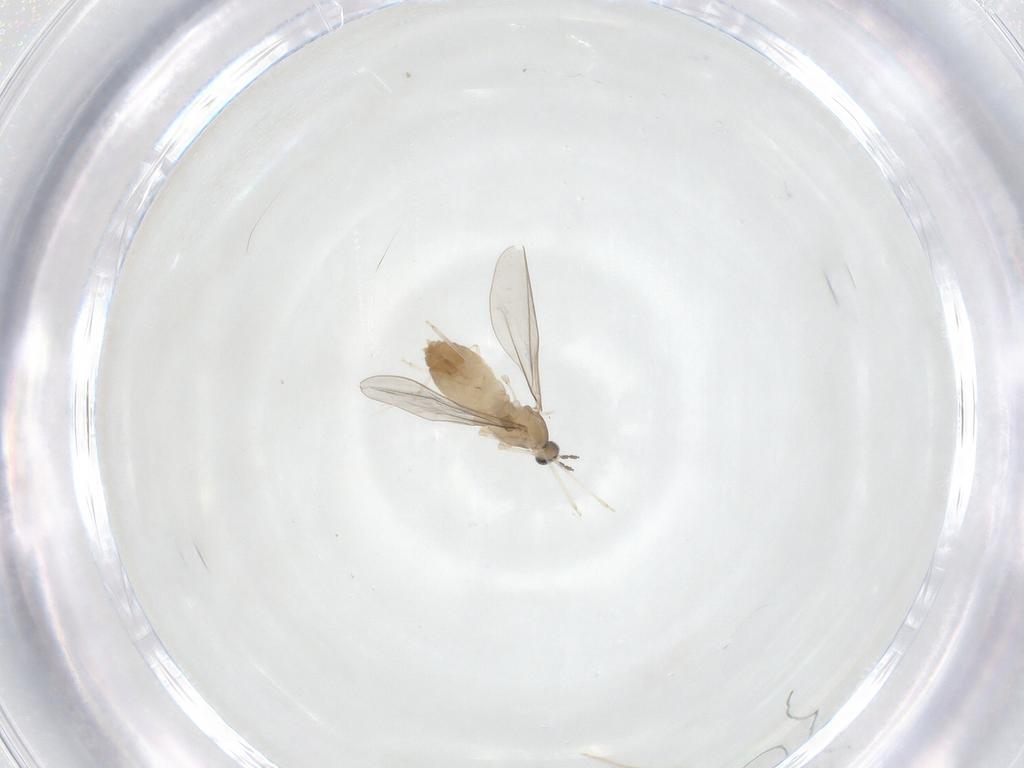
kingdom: Animalia
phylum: Arthropoda
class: Insecta
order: Diptera
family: Cecidomyiidae
